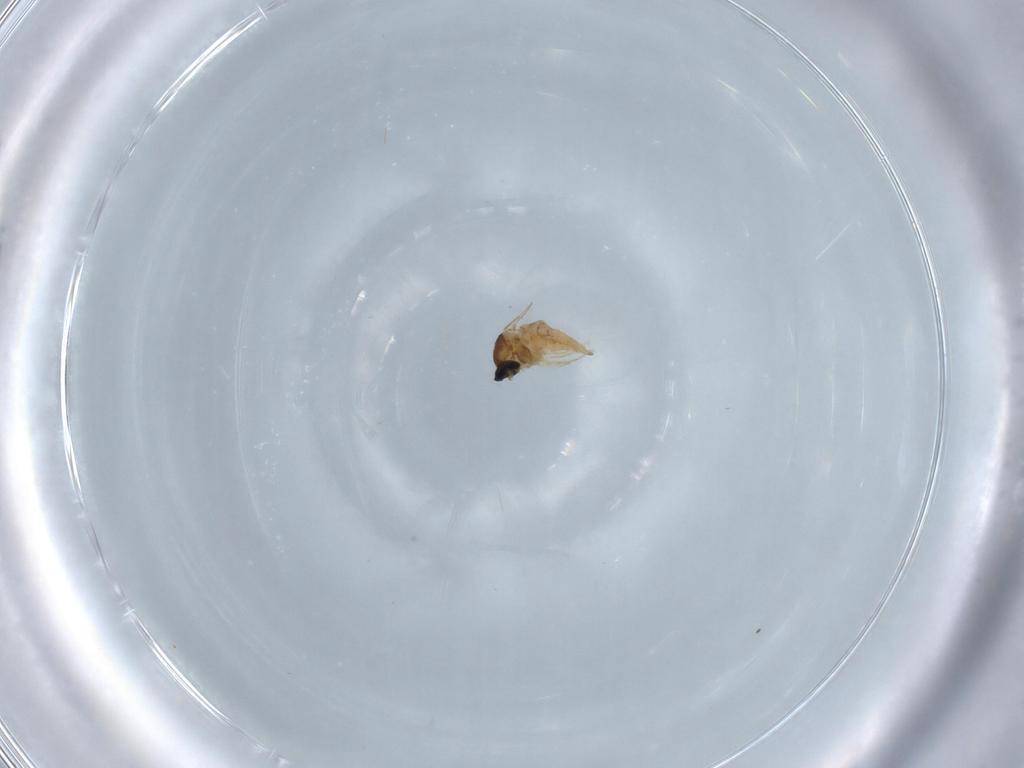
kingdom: Animalia
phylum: Arthropoda
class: Insecta
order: Diptera
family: Cecidomyiidae
